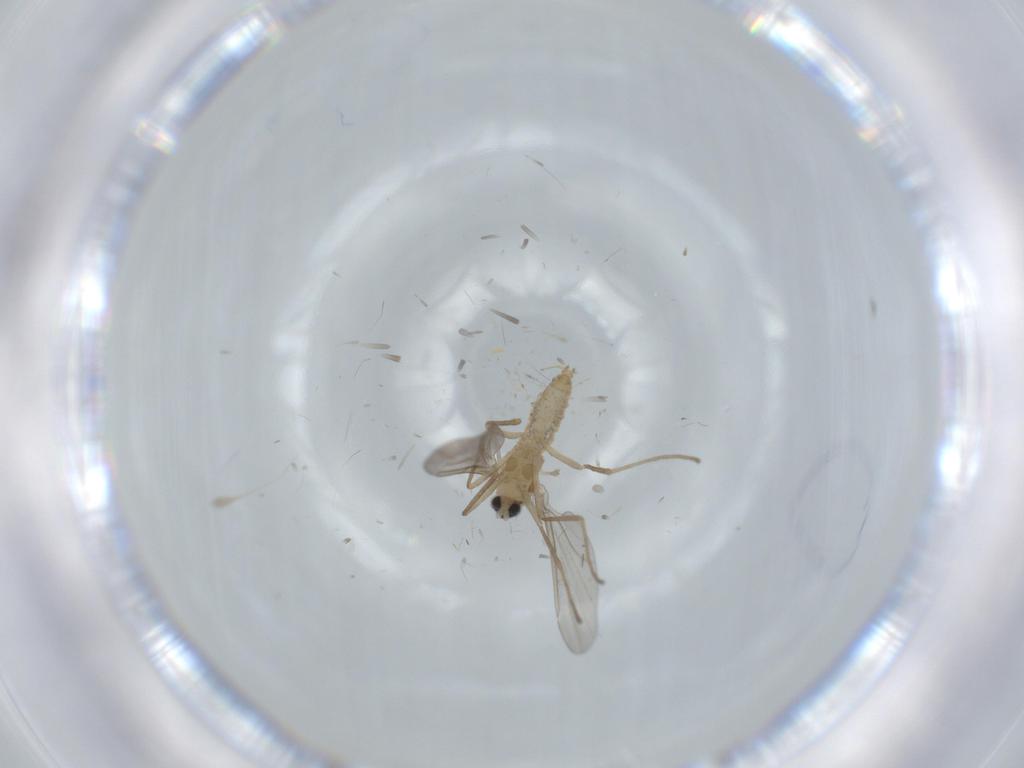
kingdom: Animalia
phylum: Arthropoda
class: Insecta
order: Diptera
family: Cecidomyiidae
